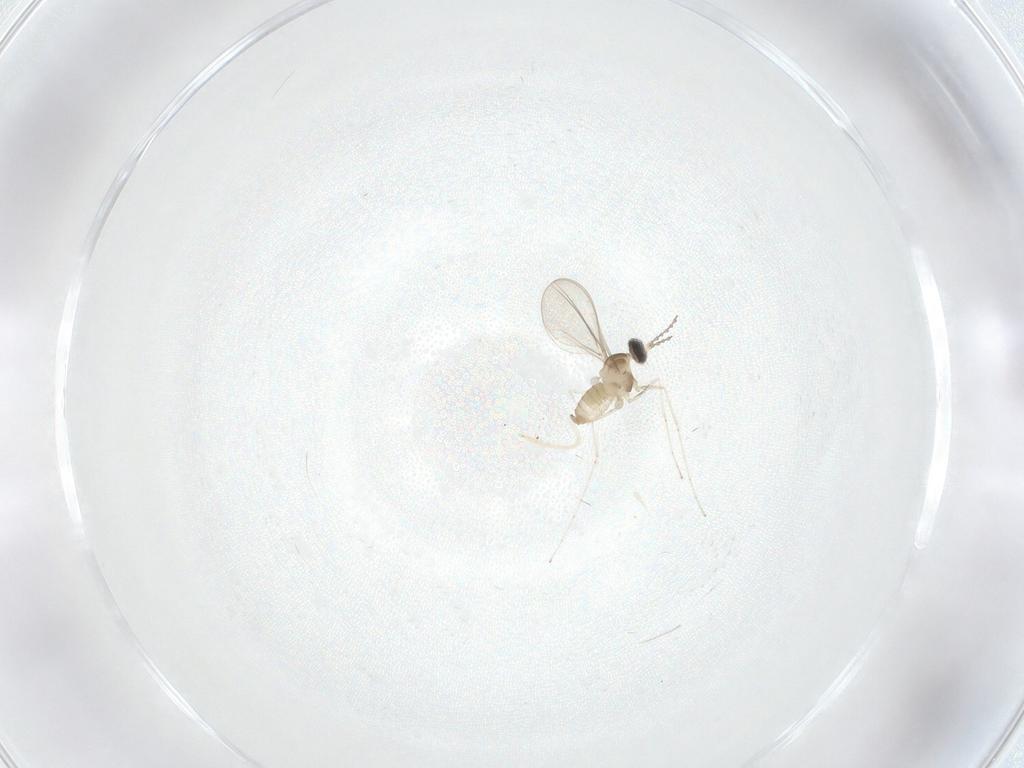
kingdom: Animalia
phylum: Arthropoda
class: Insecta
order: Diptera
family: Cecidomyiidae
